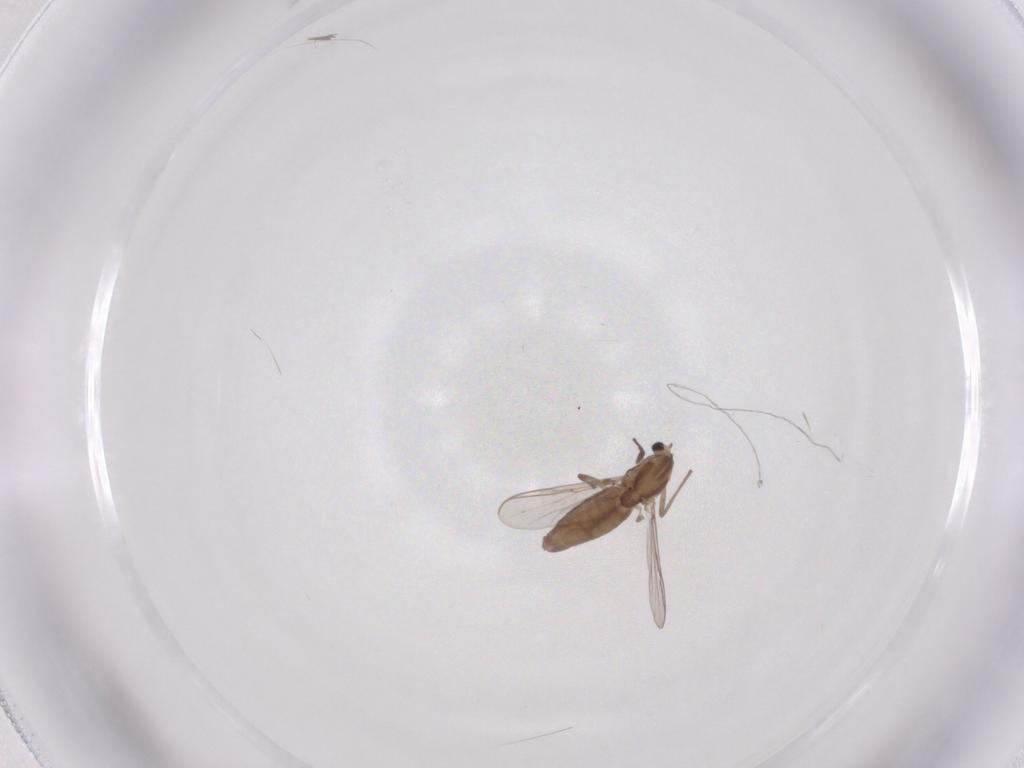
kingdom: Animalia
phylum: Arthropoda
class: Insecta
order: Diptera
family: Chironomidae
